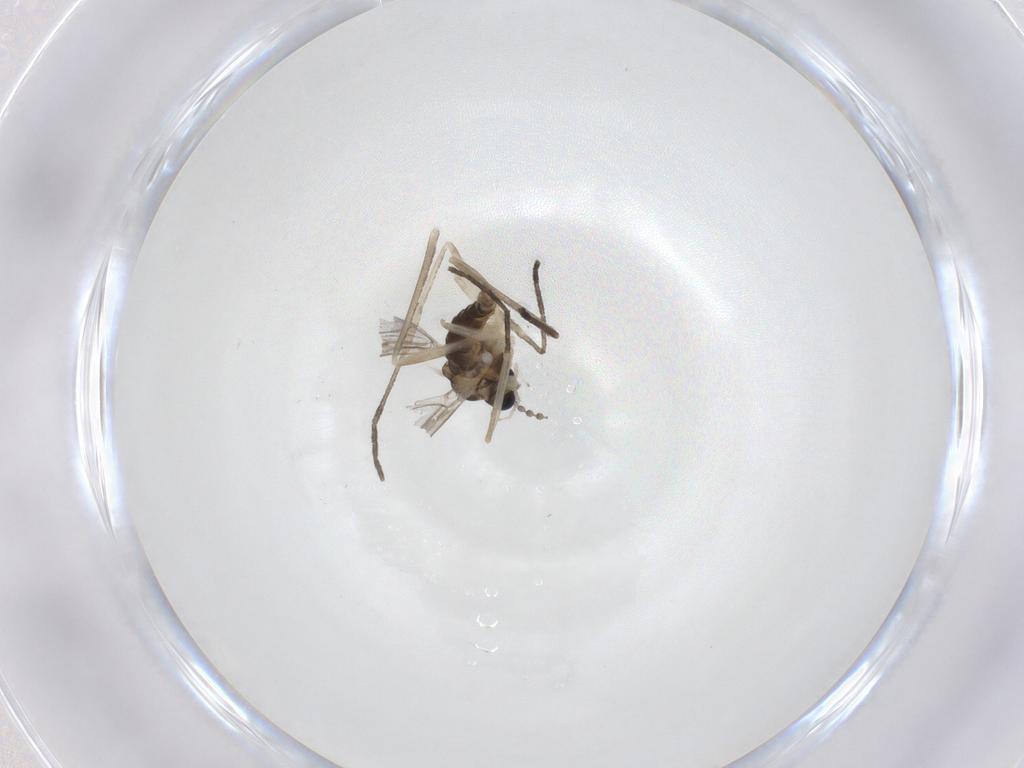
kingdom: Animalia
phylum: Arthropoda
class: Insecta
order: Diptera
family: Cecidomyiidae
